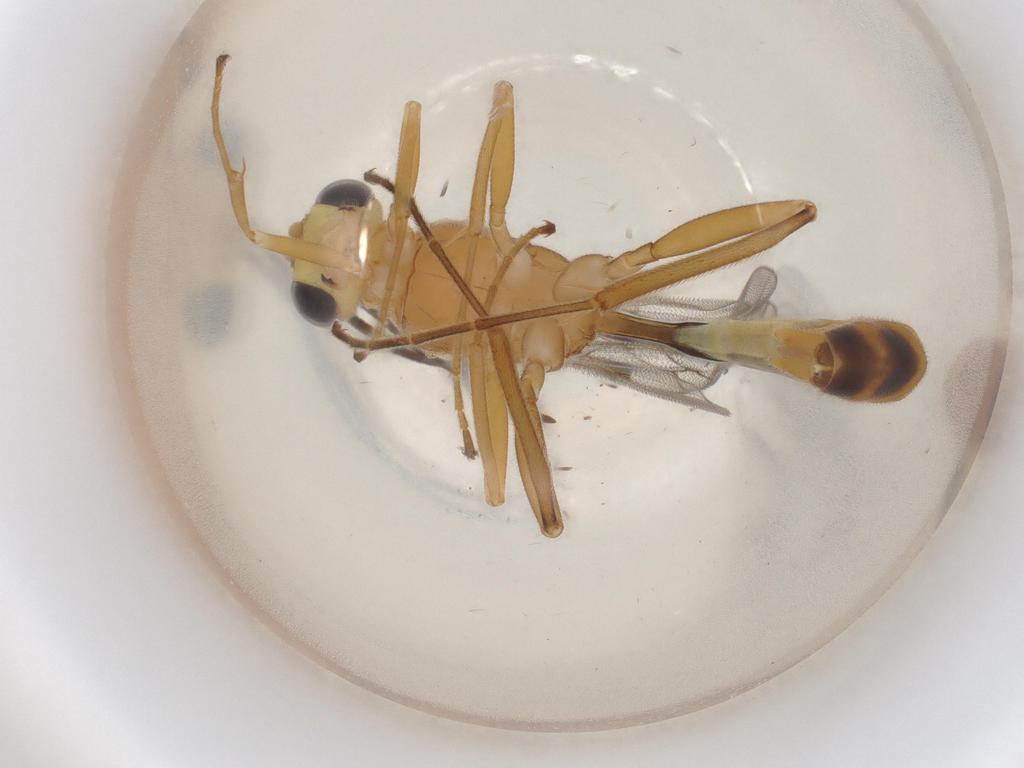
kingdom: Animalia
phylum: Arthropoda
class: Insecta
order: Hymenoptera
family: Ichneumonidae
